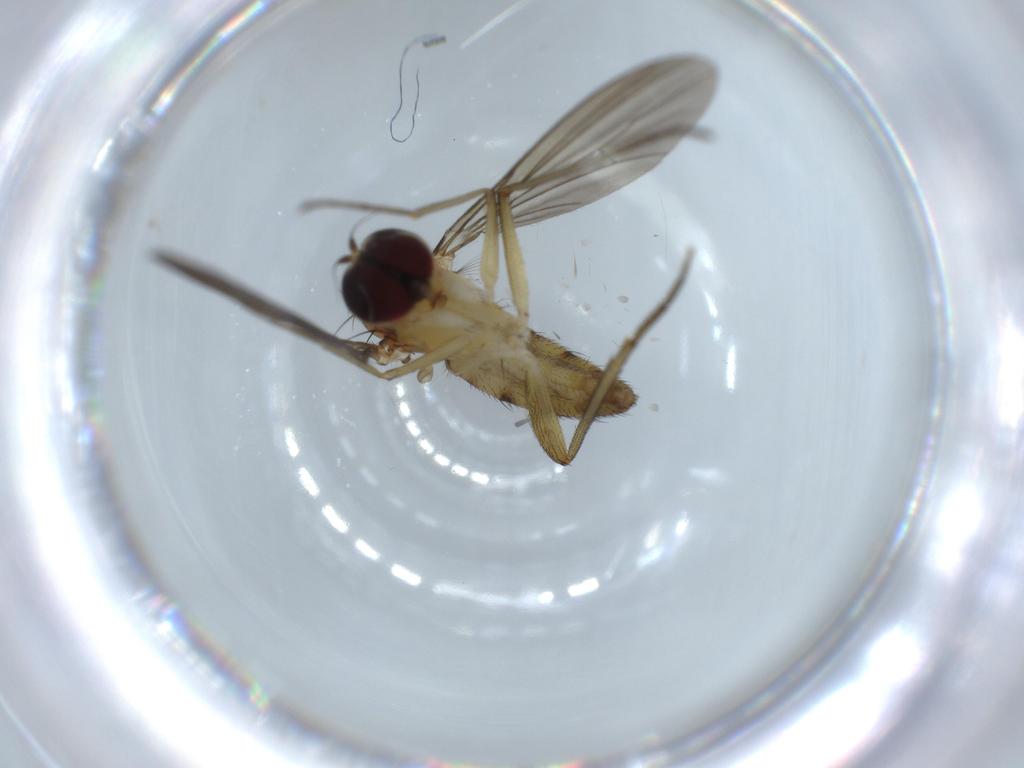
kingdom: Animalia
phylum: Arthropoda
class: Insecta
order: Diptera
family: Dolichopodidae
